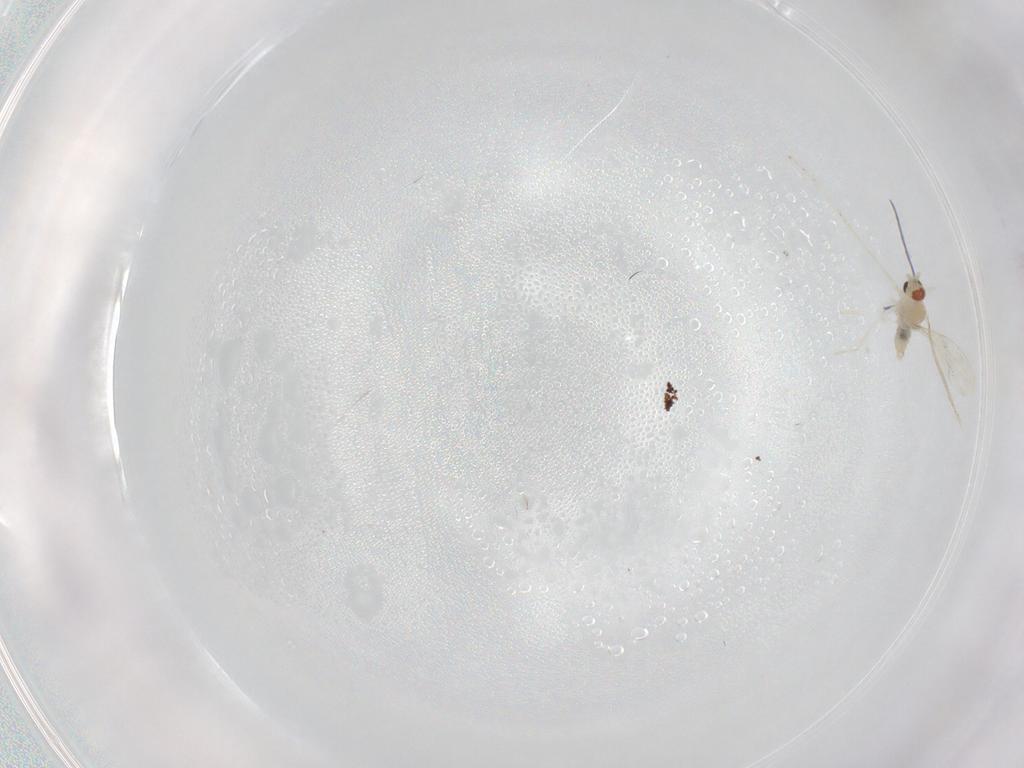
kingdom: Animalia
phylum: Arthropoda
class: Insecta
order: Diptera
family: Cecidomyiidae
